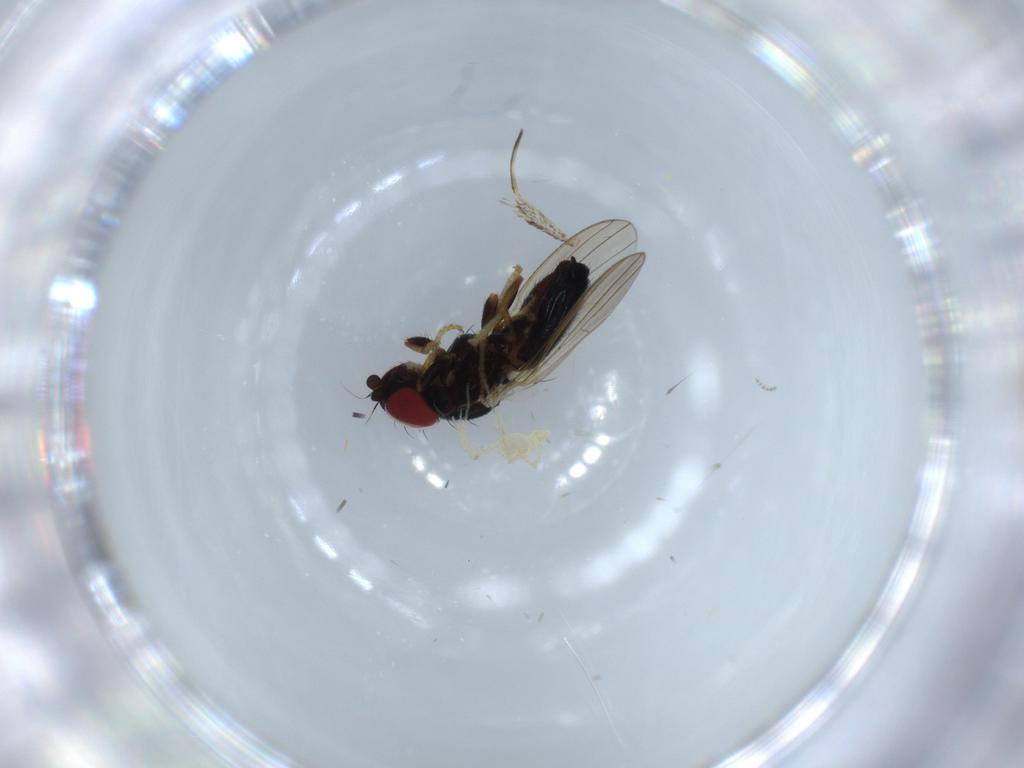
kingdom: Animalia
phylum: Arthropoda
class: Insecta
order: Diptera
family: Chamaemyiidae
